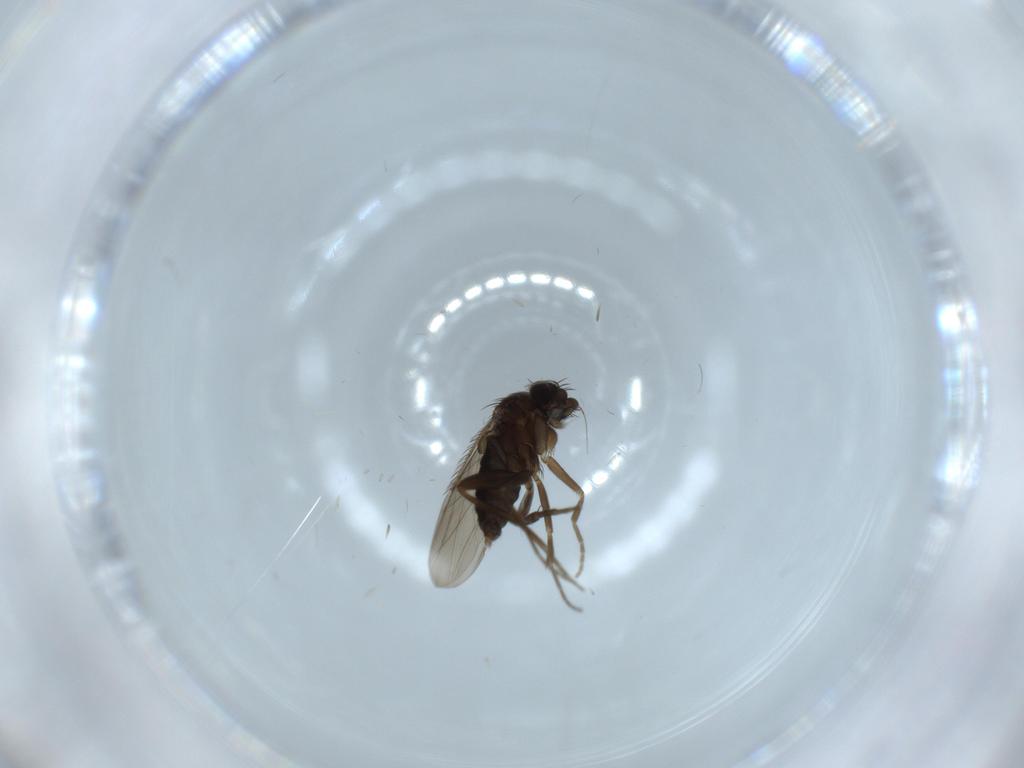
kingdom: Animalia
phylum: Arthropoda
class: Insecta
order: Diptera
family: Phoridae
